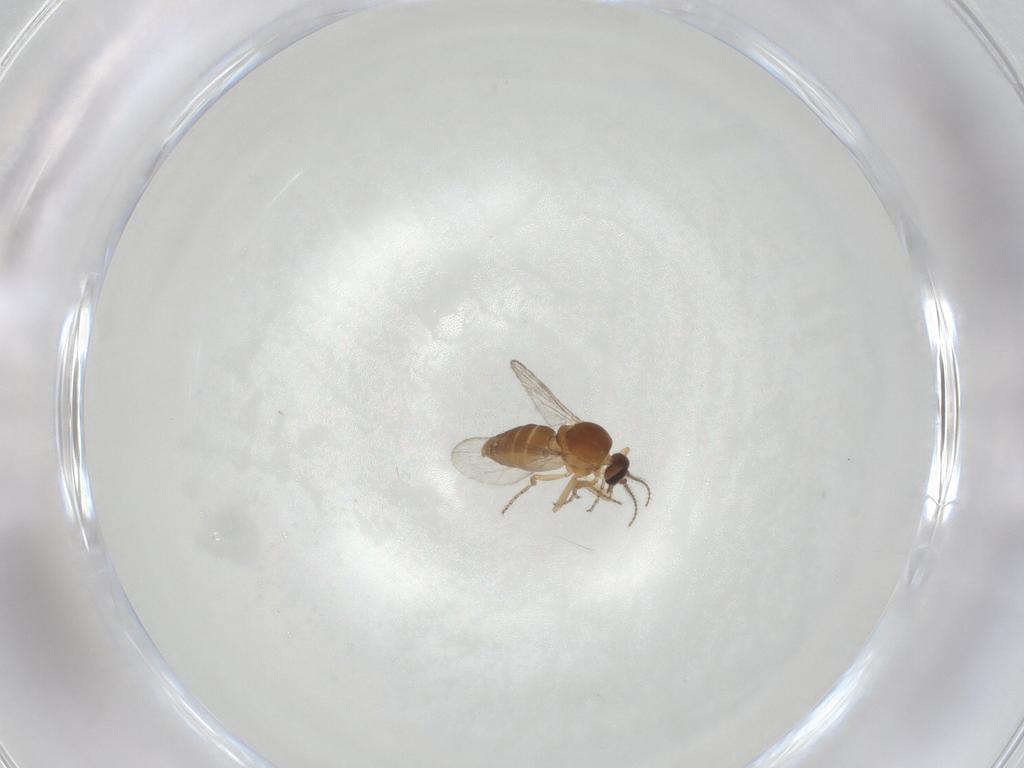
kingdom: Animalia
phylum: Arthropoda
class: Insecta
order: Diptera
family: Ceratopogonidae
